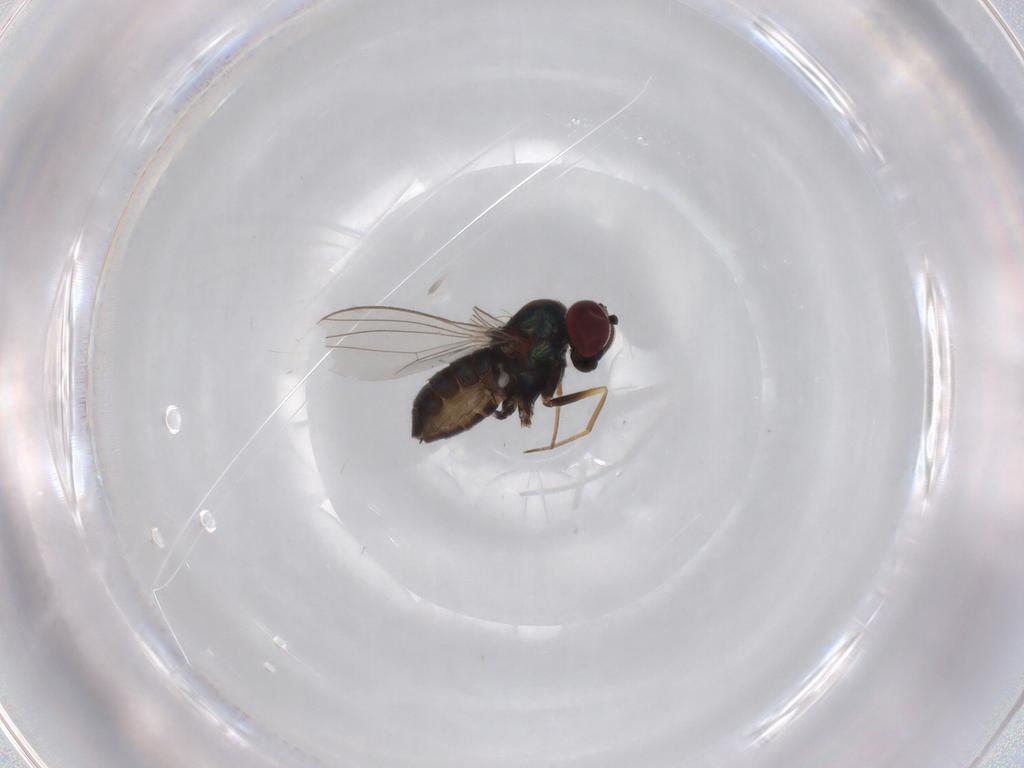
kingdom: Animalia
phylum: Arthropoda
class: Insecta
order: Diptera
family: Dolichopodidae
